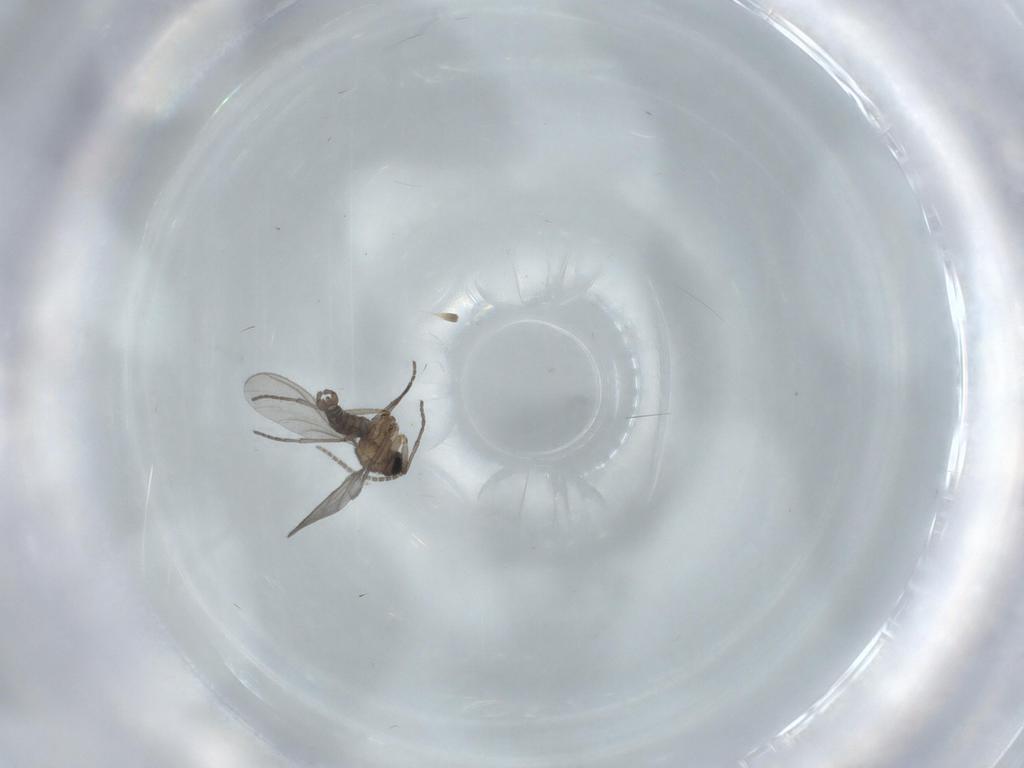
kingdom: Animalia
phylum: Arthropoda
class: Insecta
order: Diptera
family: Sciaridae
